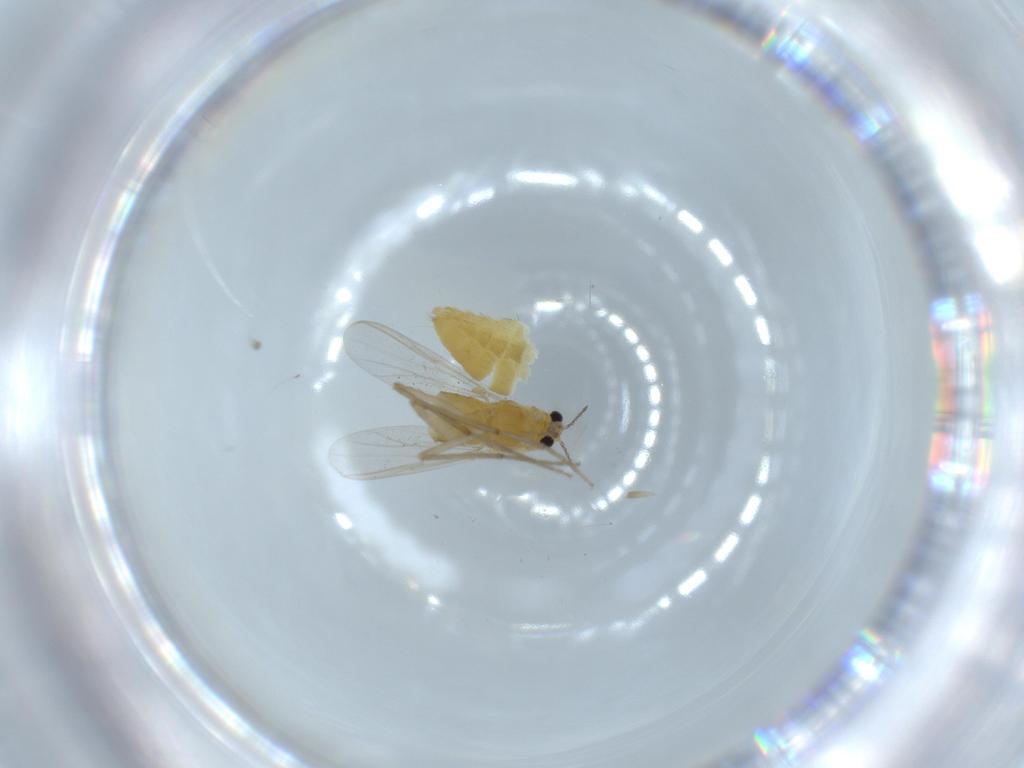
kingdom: Animalia
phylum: Arthropoda
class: Insecta
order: Diptera
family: Chironomidae
